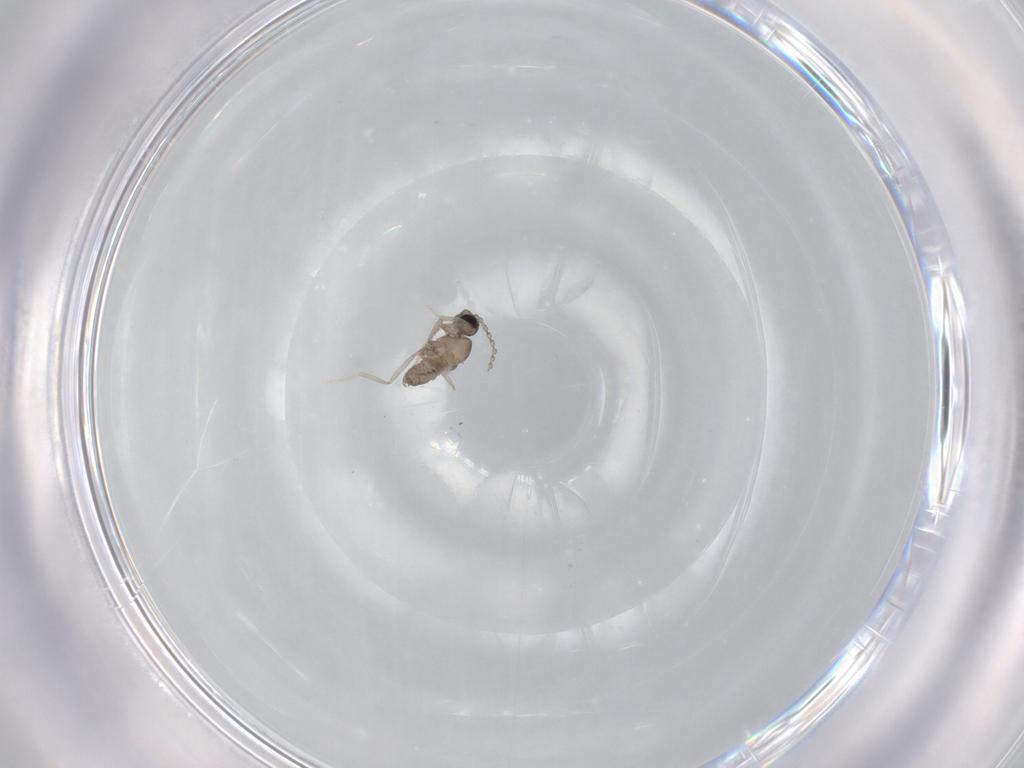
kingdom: Animalia
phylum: Arthropoda
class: Insecta
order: Diptera
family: Cecidomyiidae
